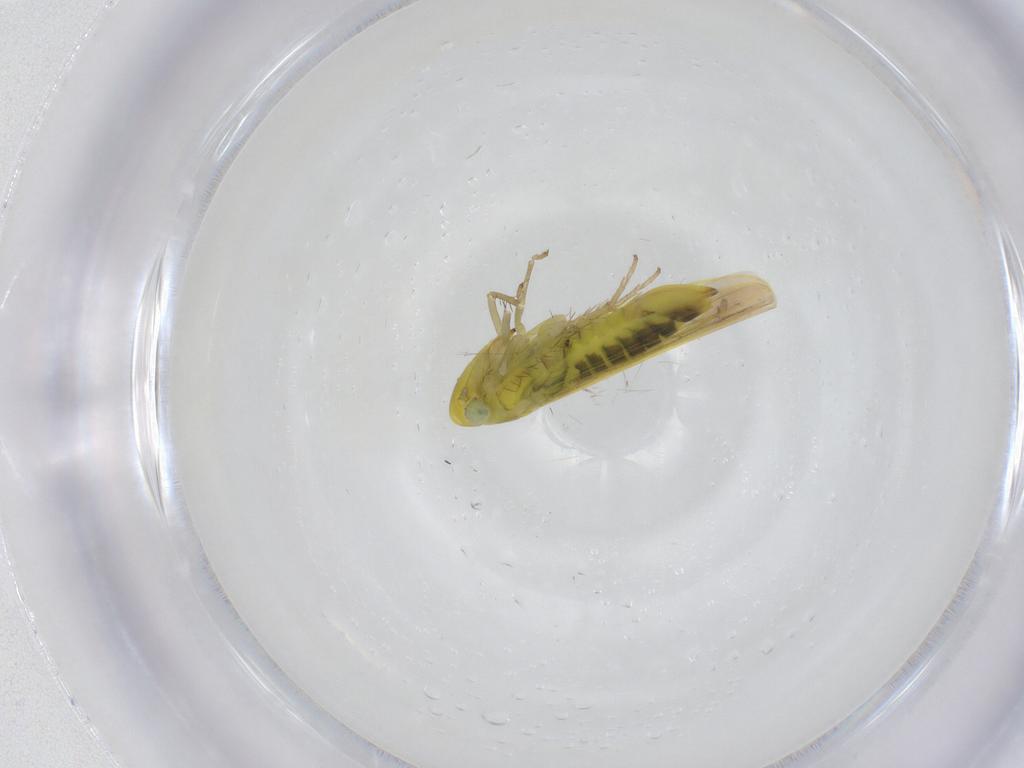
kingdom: Animalia
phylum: Arthropoda
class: Insecta
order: Hemiptera
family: Cicadellidae
